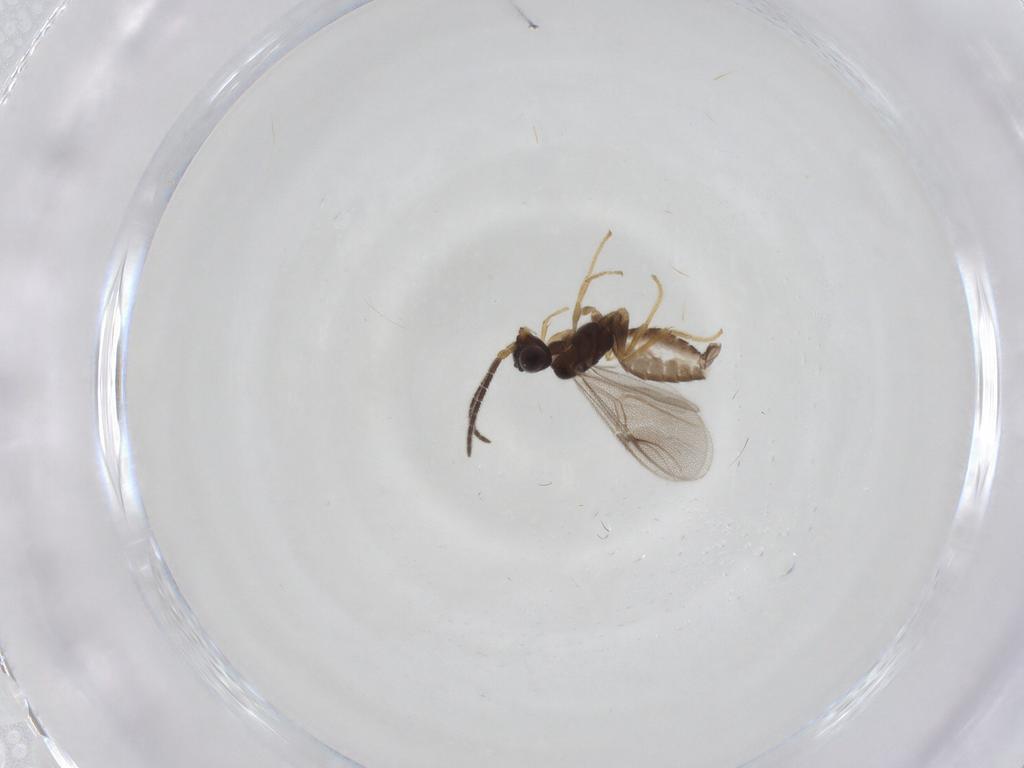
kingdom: Animalia
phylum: Arthropoda
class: Insecta
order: Hymenoptera
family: Dryinidae
